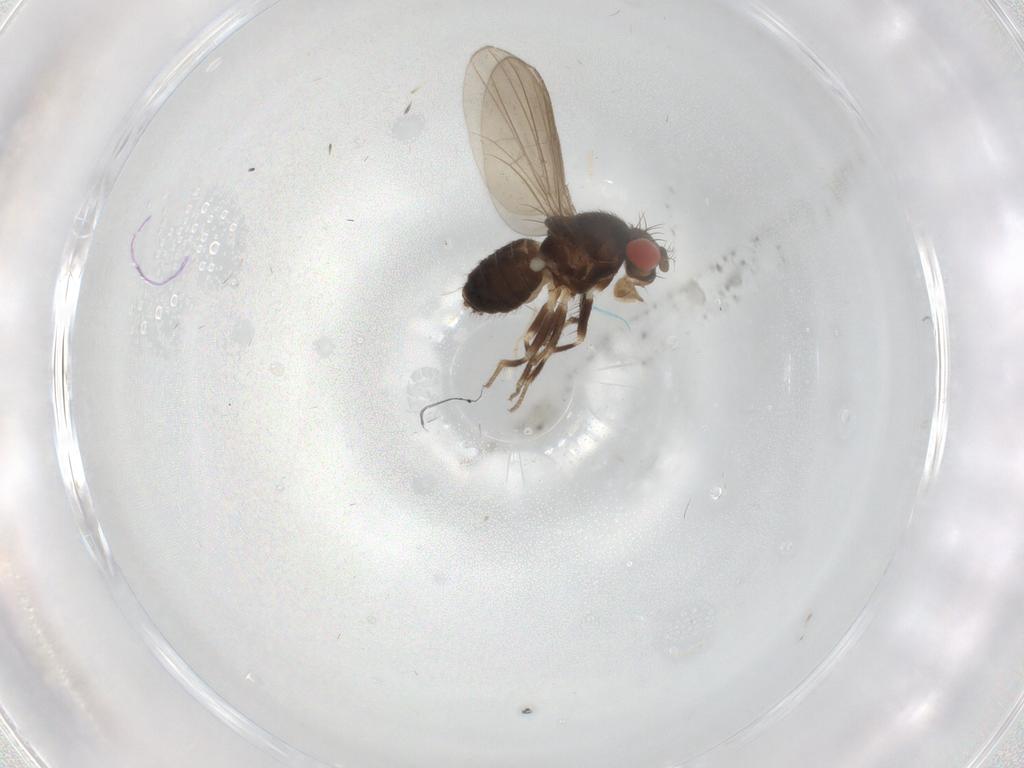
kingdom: Animalia
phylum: Arthropoda
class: Insecta
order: Diptera
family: Drosophilidae
